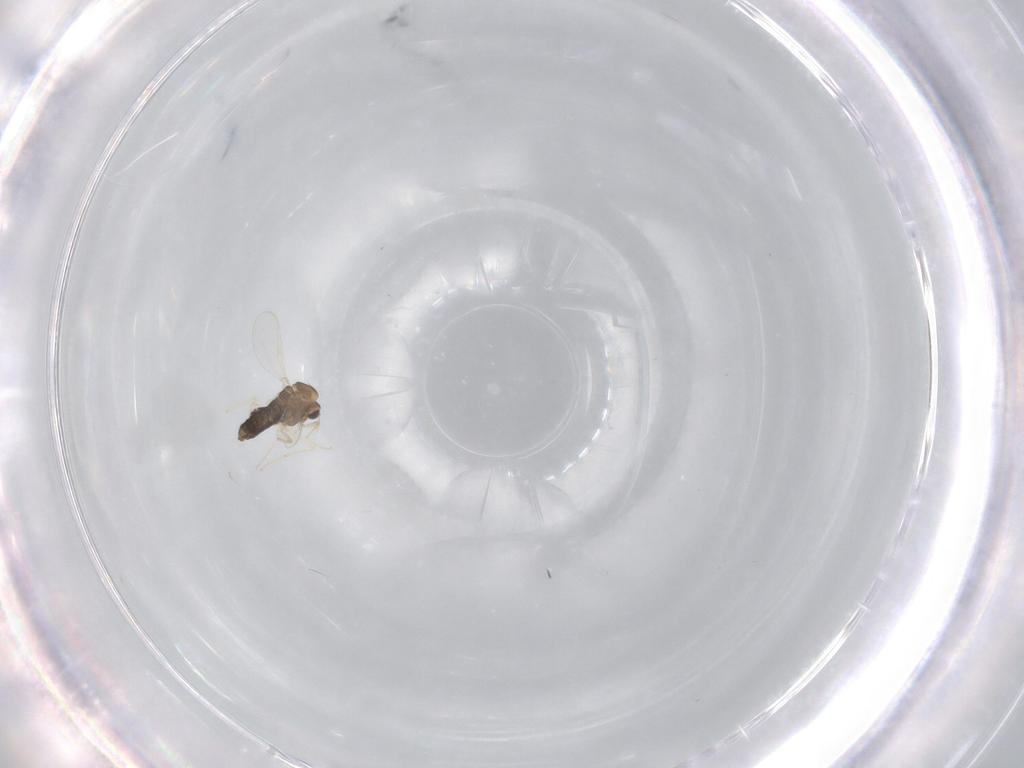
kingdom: Animalia
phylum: Arthropoda
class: Insecta
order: Diptera
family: Chironomidae
